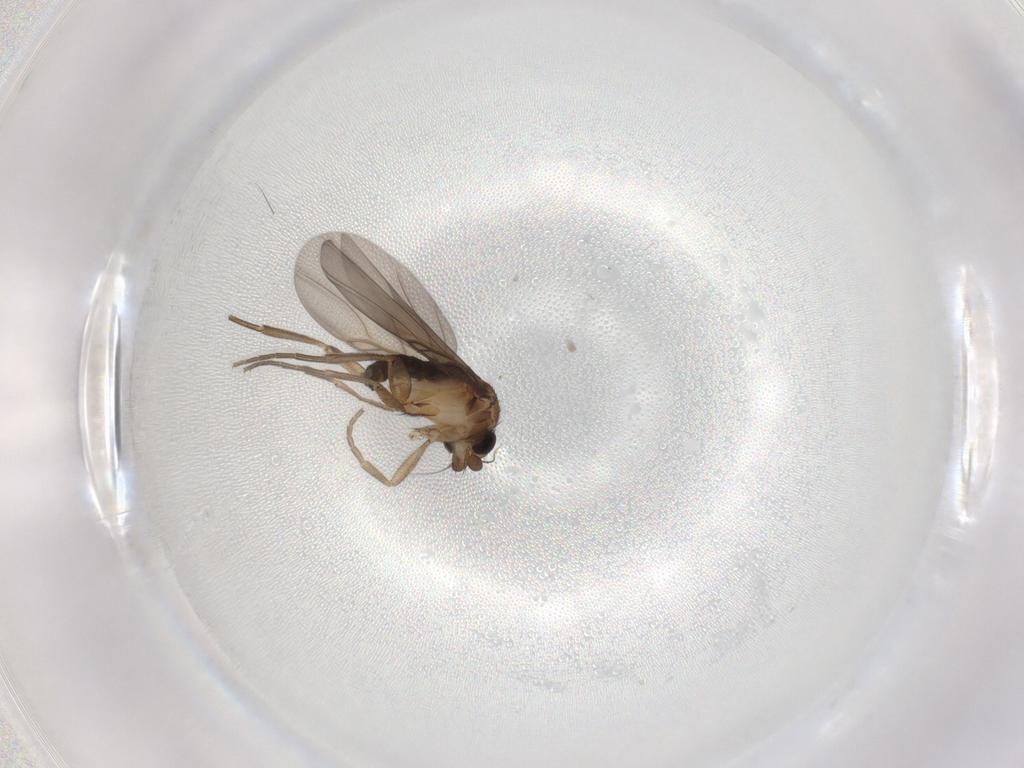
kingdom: Animalia
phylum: Arthropoda
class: Insecta
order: Diptera
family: Phoridae
